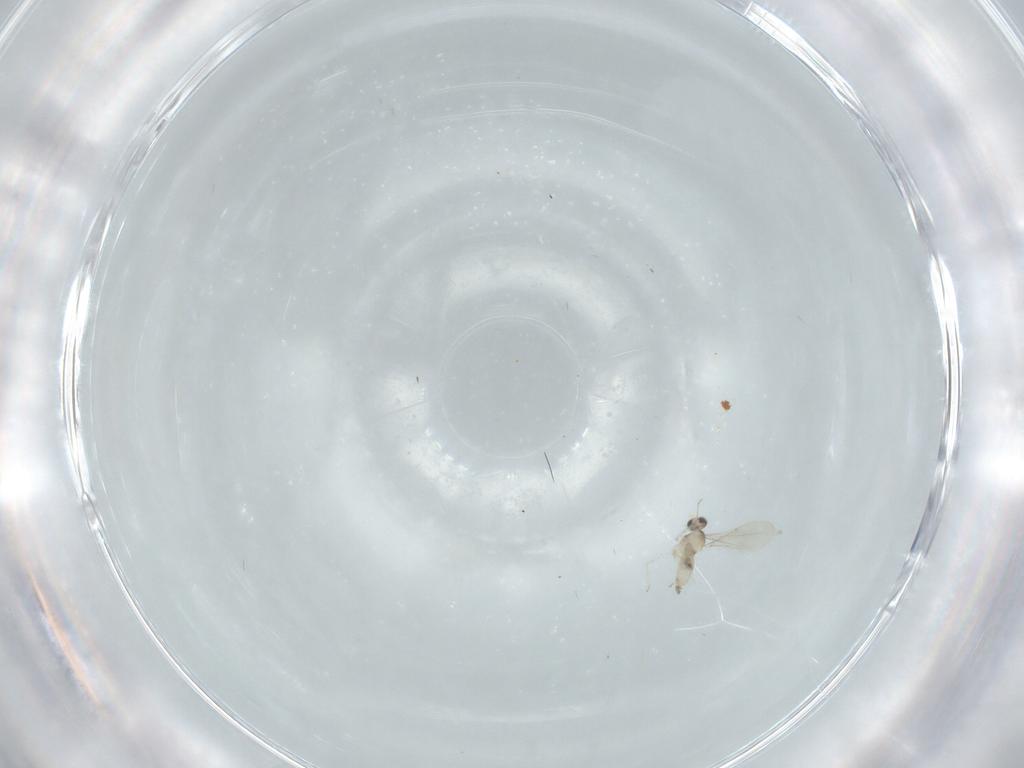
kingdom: Animalia
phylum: Arthropoda
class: Insecta
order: Diptera
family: Cecidomyiidae
